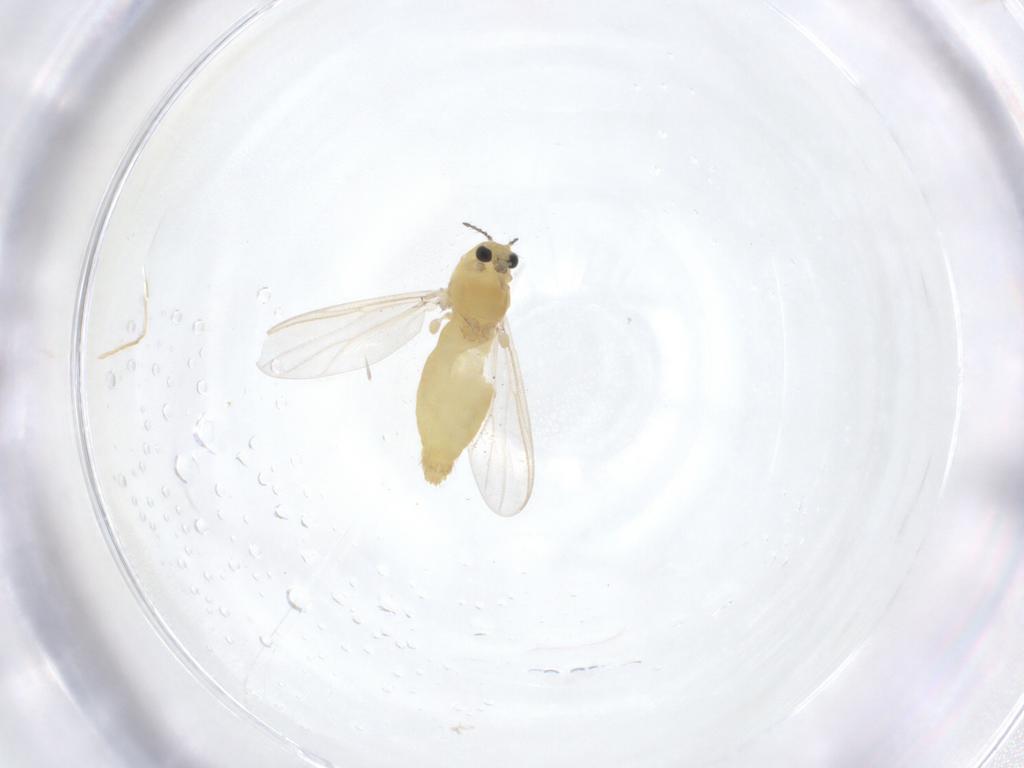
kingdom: Animalia
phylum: Arthropoda
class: Insecta
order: Diptera
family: Chironomidae
